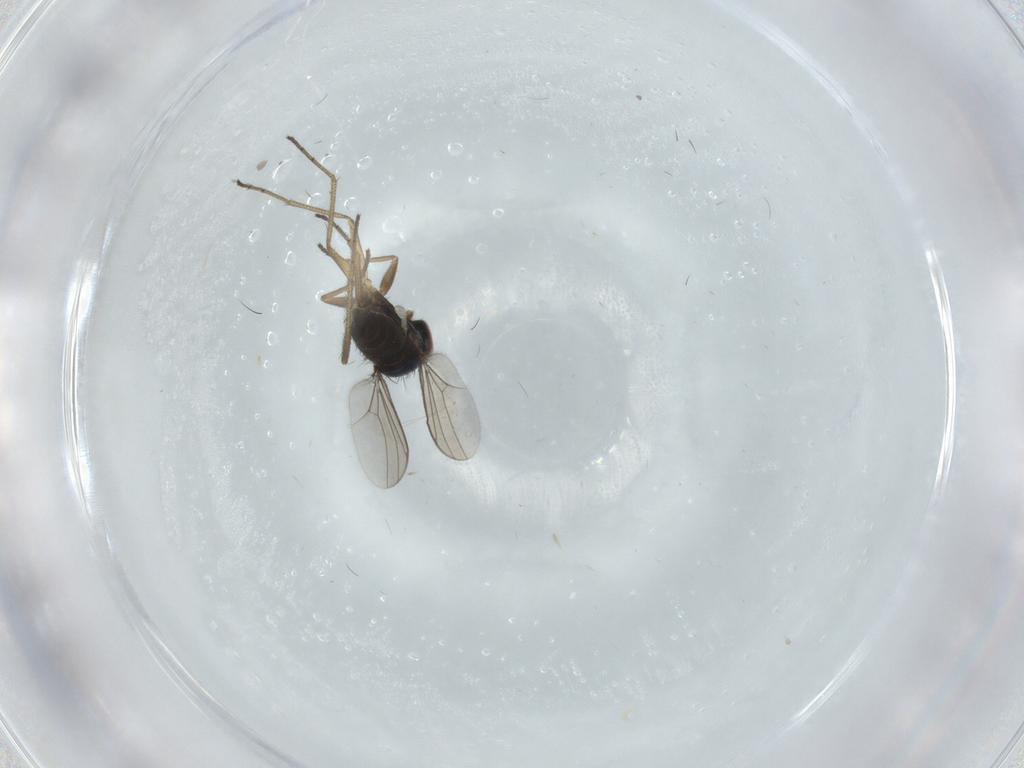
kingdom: Animalia
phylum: Arthropoda
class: Insecta
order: Diptera
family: Dolichopodidae
